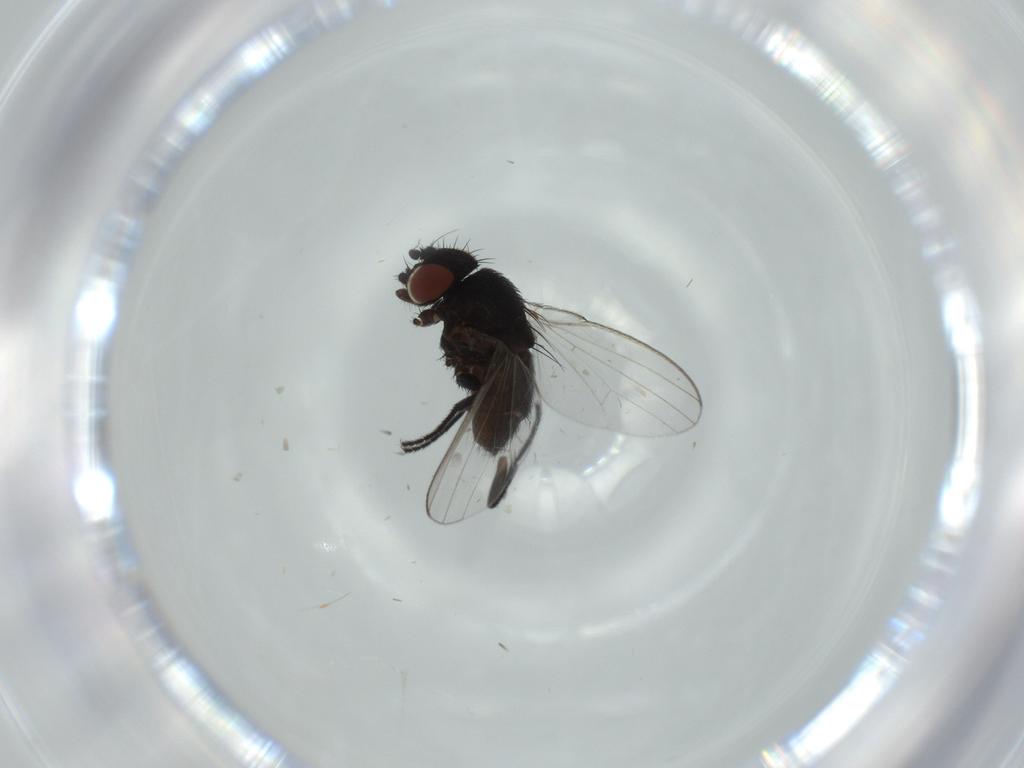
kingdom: Animalia
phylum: Arthropoda
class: Insecta
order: Diptera
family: Milichiidae
